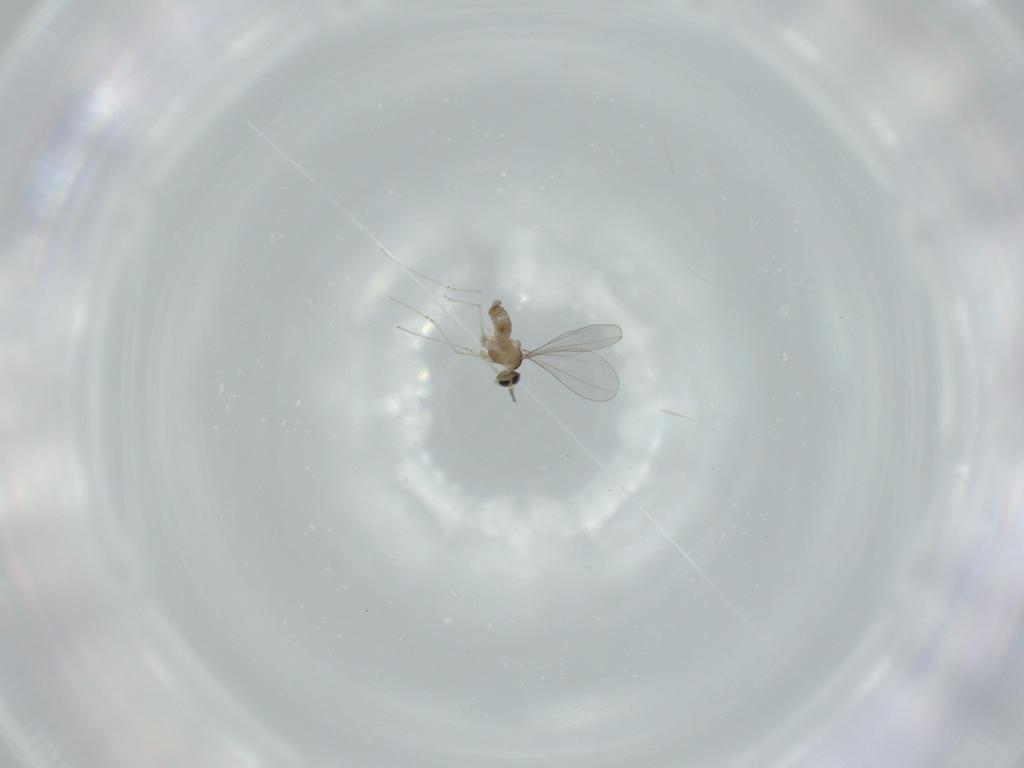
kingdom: Animalia
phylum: Arthropoda
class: Insecta
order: Diptera
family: Cecidomyiidae
